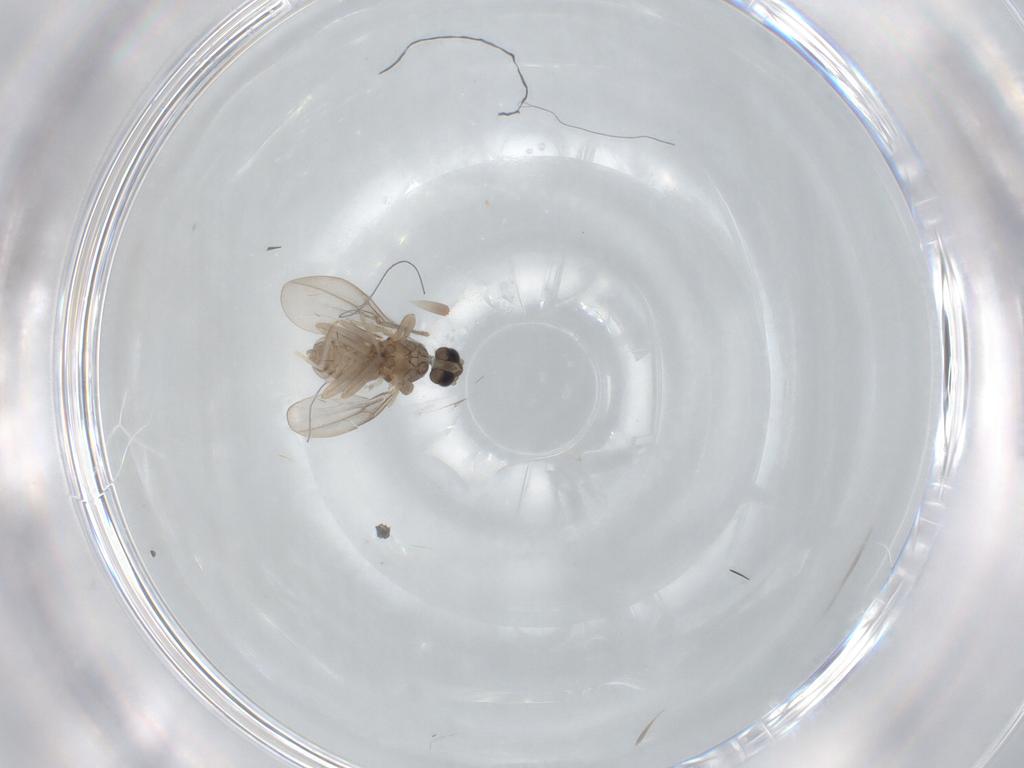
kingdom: Animalia
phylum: Arthropoda
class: Insecta
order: Diptera
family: Cecidomyiidae
